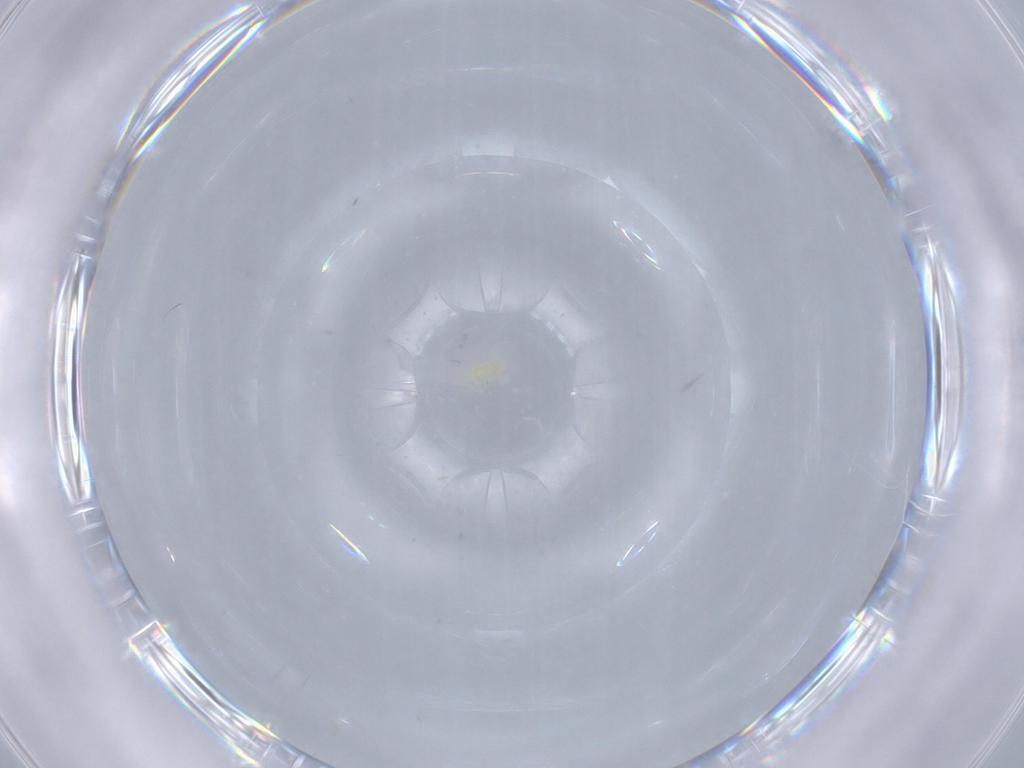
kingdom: Animalia
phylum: Arthropoda
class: Arachnida
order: Trombidiformes
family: Eupodidae
